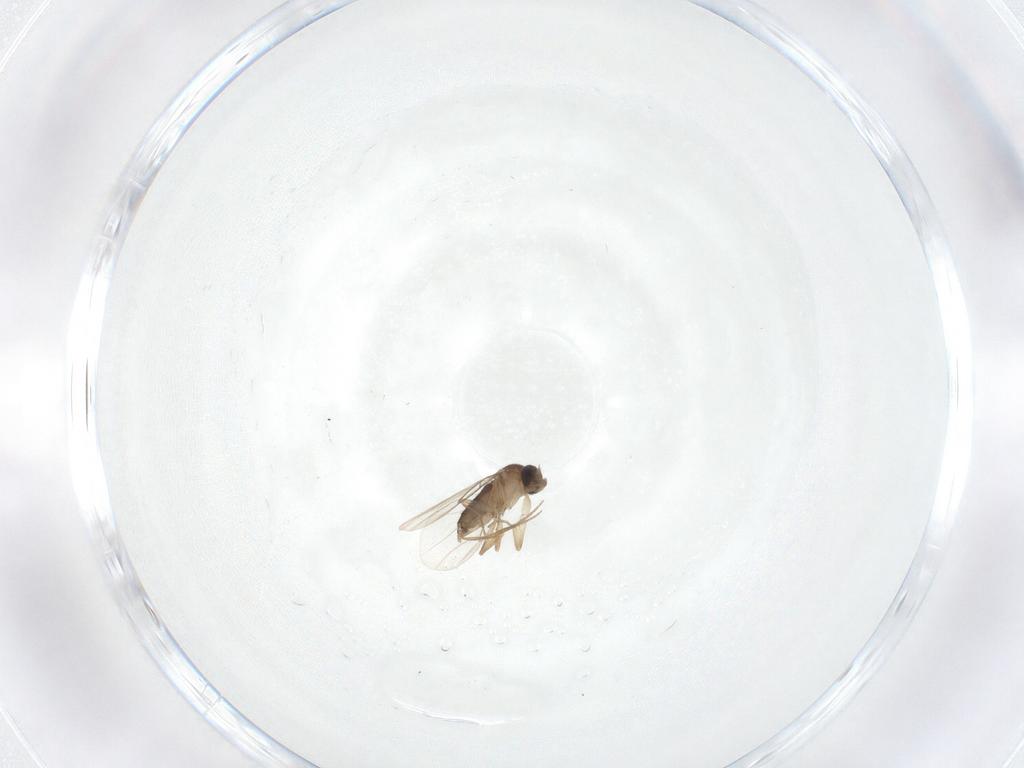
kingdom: Animalia
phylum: Arthropoda
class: Insecta
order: Diptera
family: Phoridae
